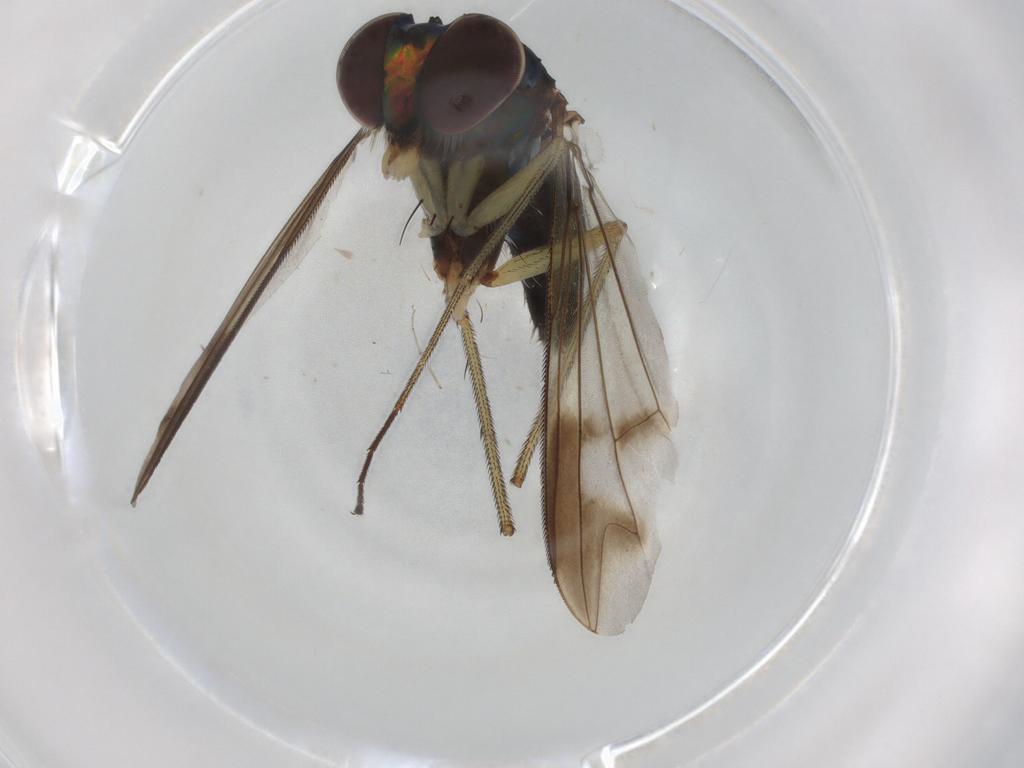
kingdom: Animalia
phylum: Arthropoda
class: Insecta
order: Diptera
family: Dolichopodidae
